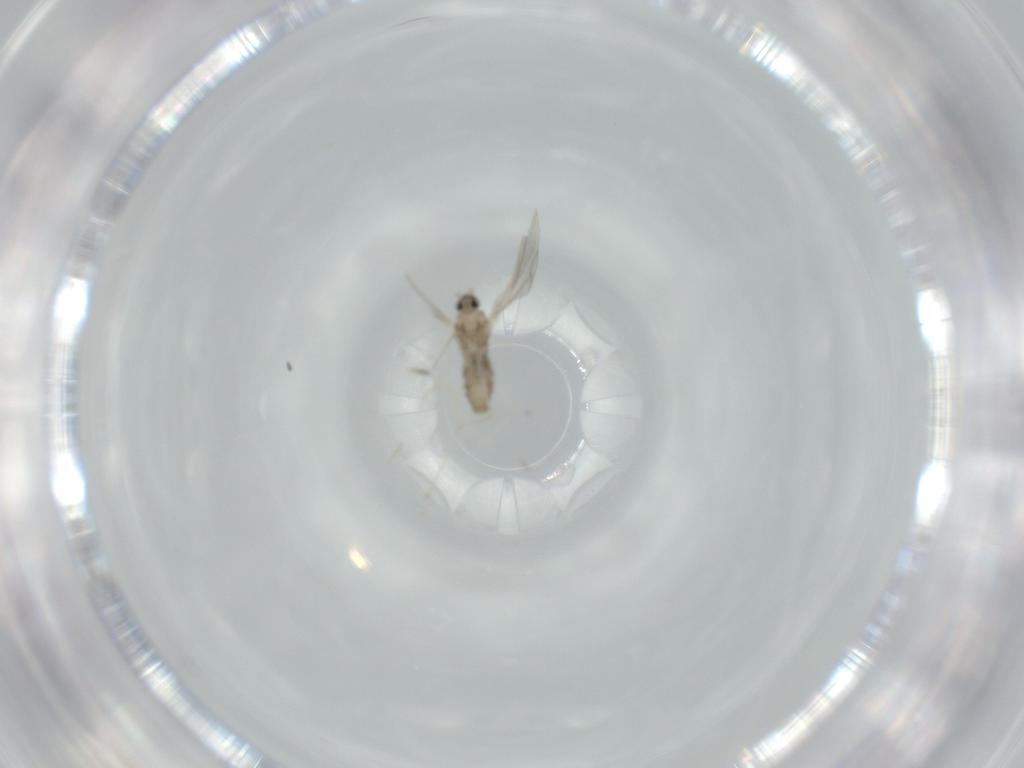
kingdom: Animalia
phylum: Arthropoda
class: Insecta
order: Diptera
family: Cecidomyiidae
